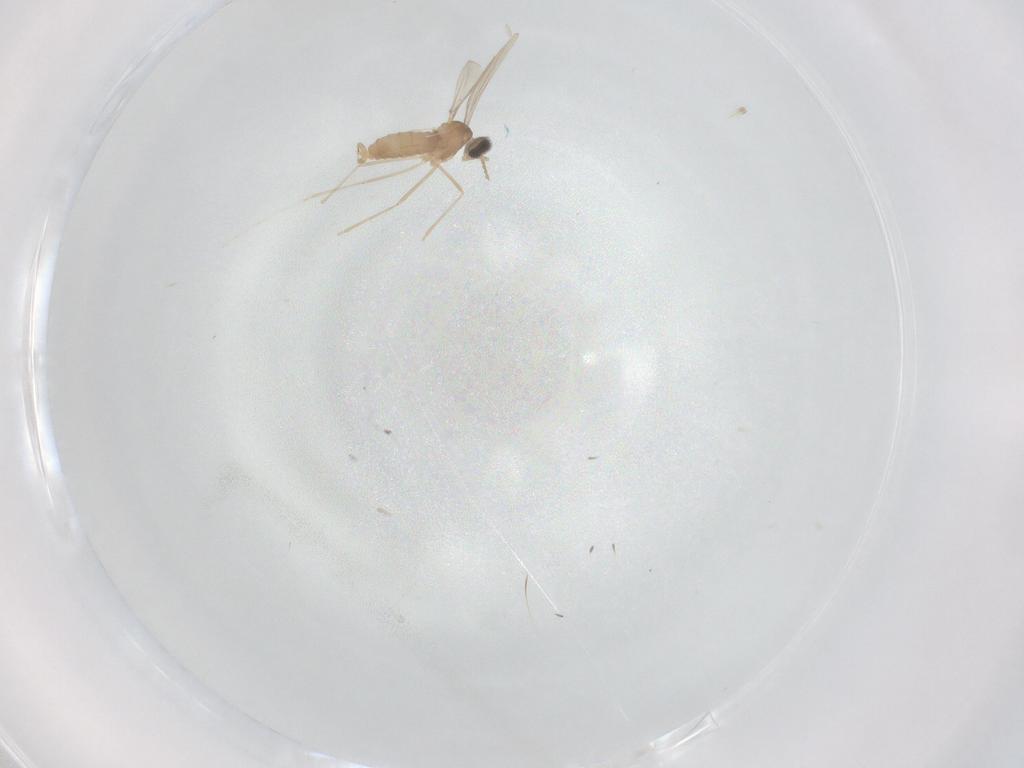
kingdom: Animalia
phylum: Arthropoda
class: Insecta
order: Diptera
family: Cecidomyiidae
